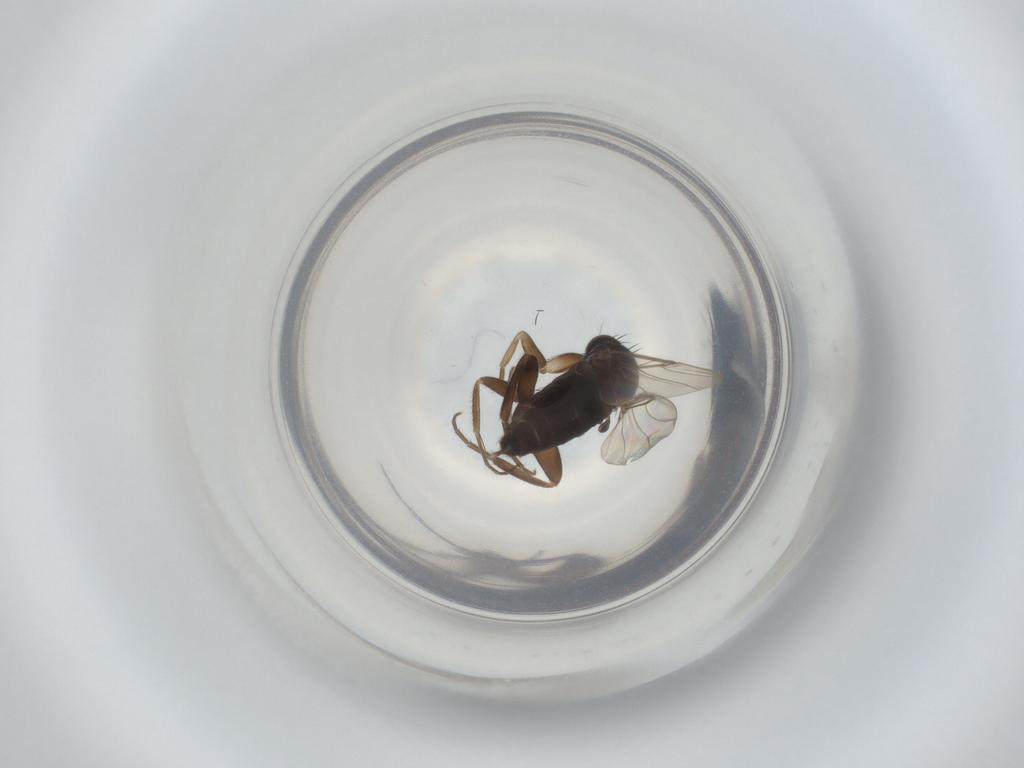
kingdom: Animalia
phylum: Arthropoda
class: Insecta
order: Diptera
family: Phoridae
